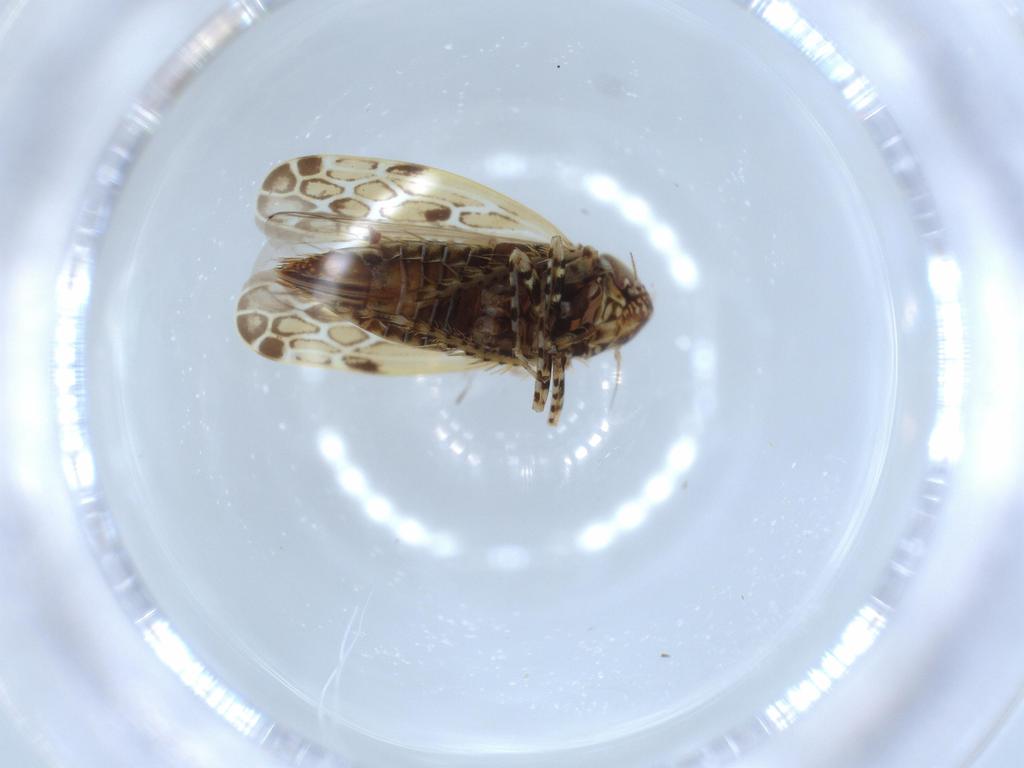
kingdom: Animalia
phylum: Arthropoda
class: Insecta
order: Hemiptera
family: Cicadellidae
